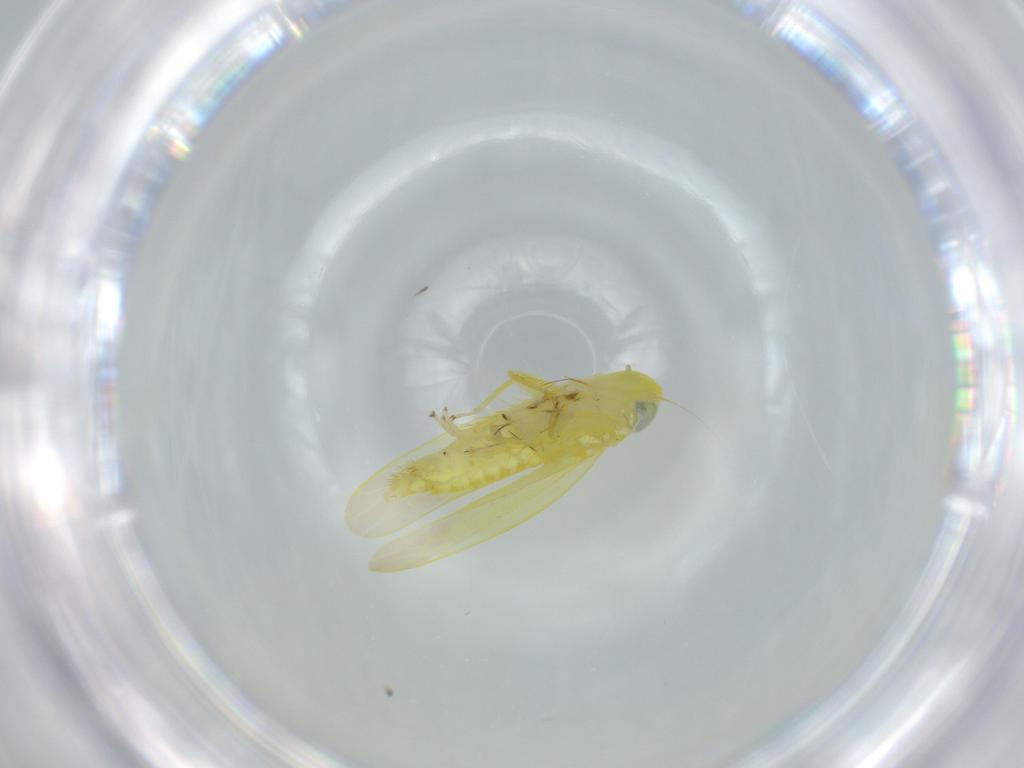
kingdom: Animalia
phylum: Arthropoda
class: Insecta
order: Hemiptera
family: Cicadellidae
